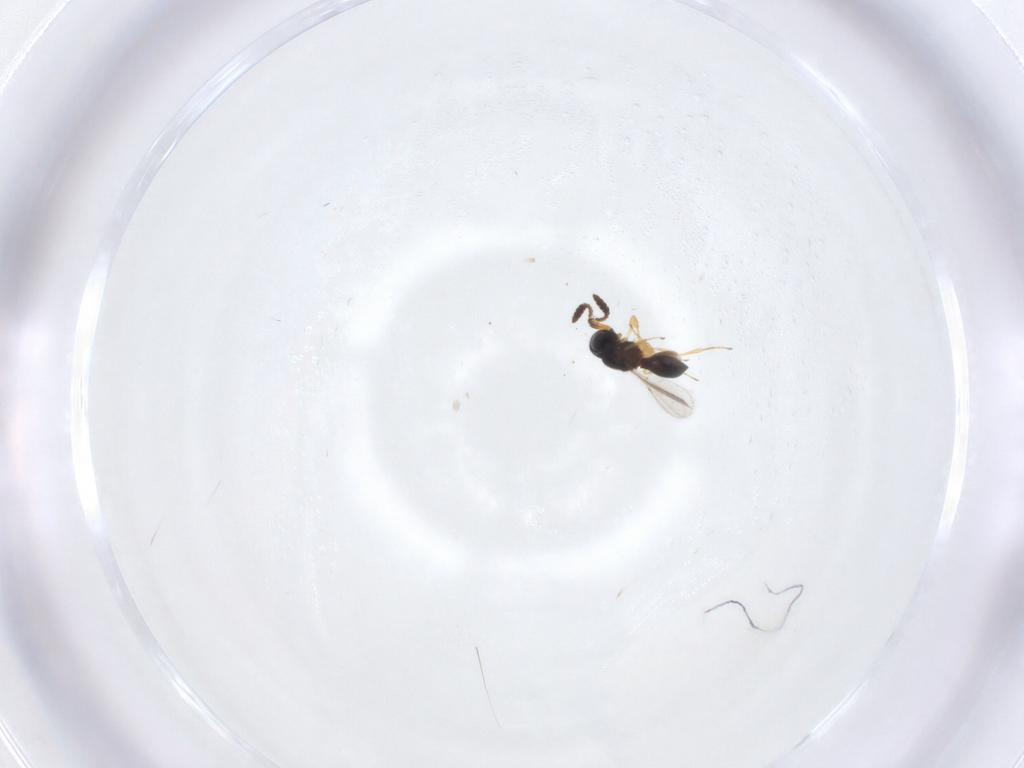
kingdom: Animalia
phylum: Arthropoda
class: Insecta
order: Hymenoptera
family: Scelionidae
